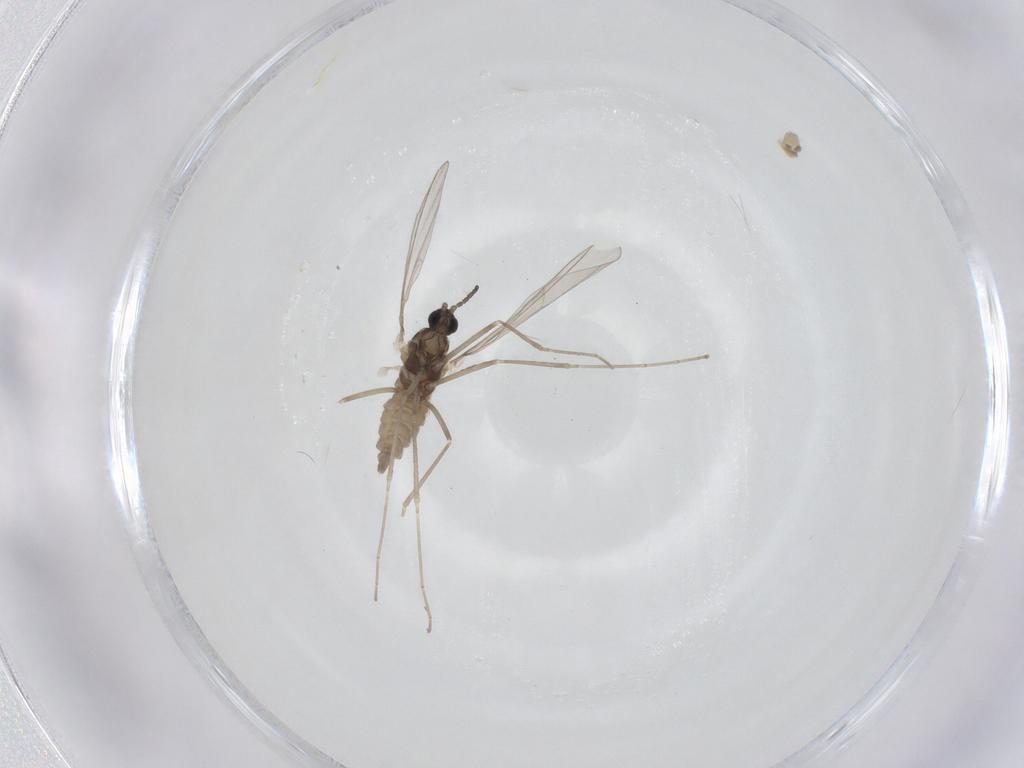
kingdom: Animalia
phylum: Arthropoda
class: Insecta
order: Diptera
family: Cecidomyiidae
